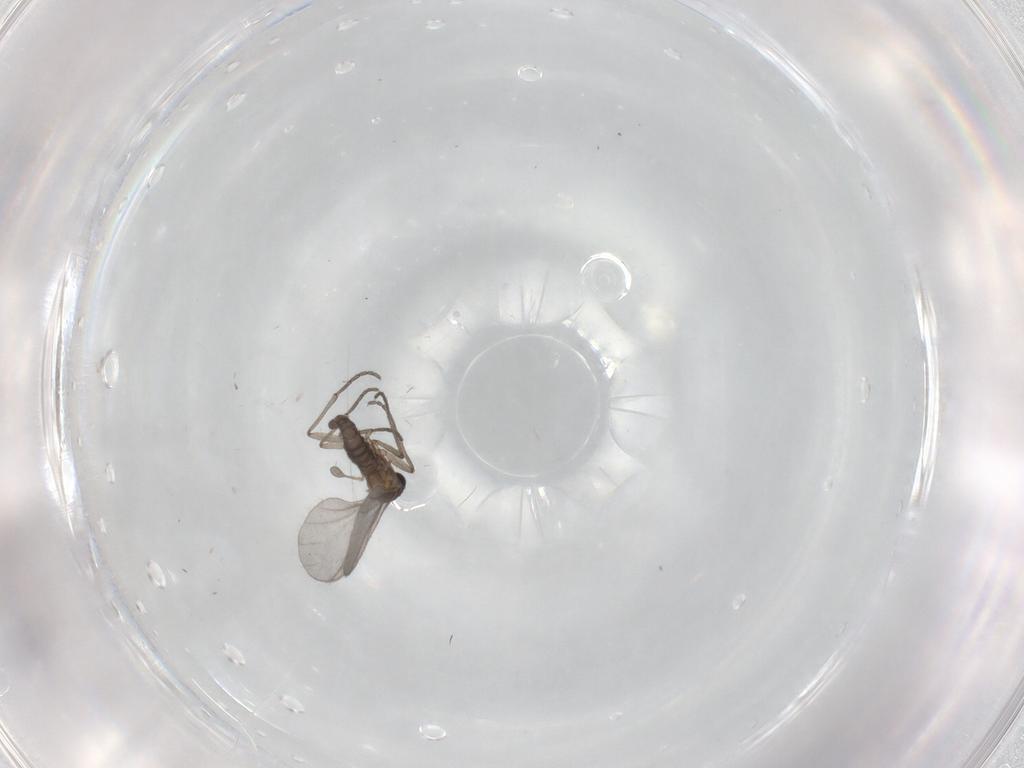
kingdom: Animalia
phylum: Arthropoda
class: Insecta
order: Diptera
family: Sciaridae
